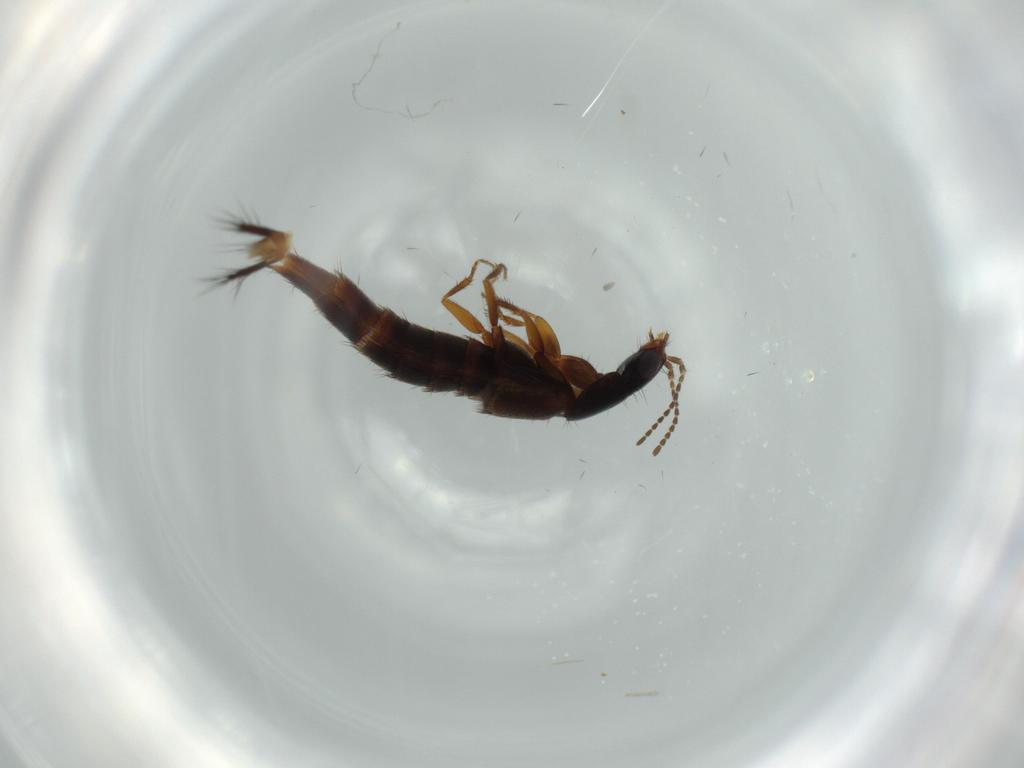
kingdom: Animalia
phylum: Arthropoda
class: Insecta
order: Coleoptera
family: Staphylinidae
